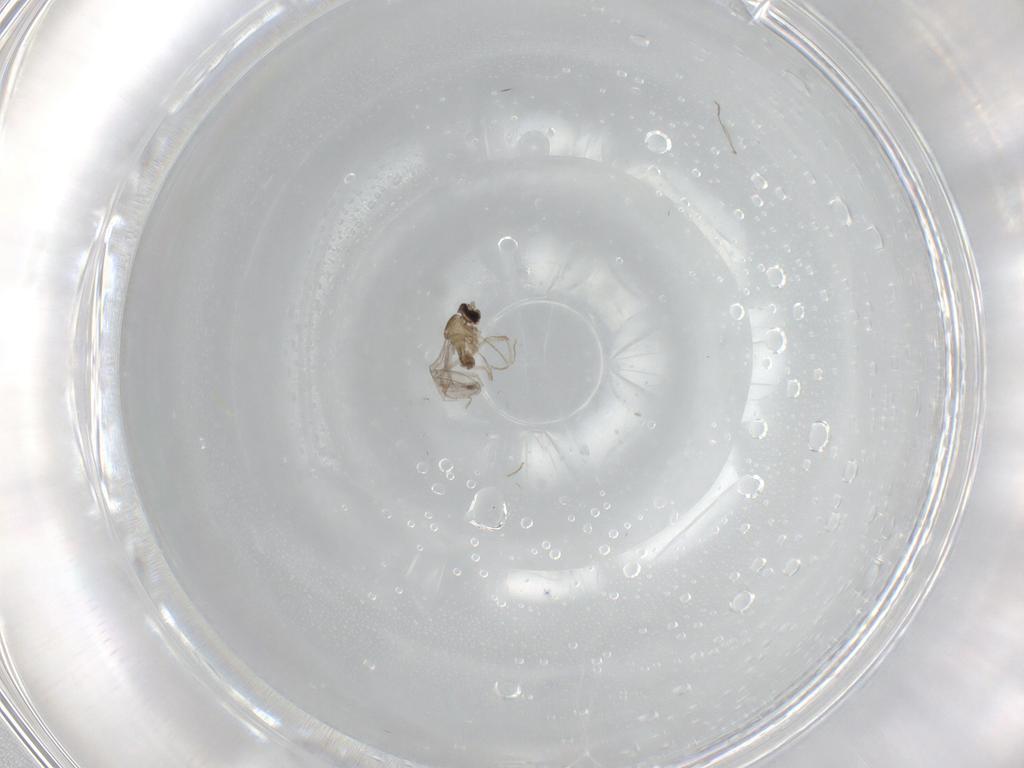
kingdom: Animalia
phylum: Arthropoda
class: Insecta
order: Diptera
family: Cecidomyiidae
